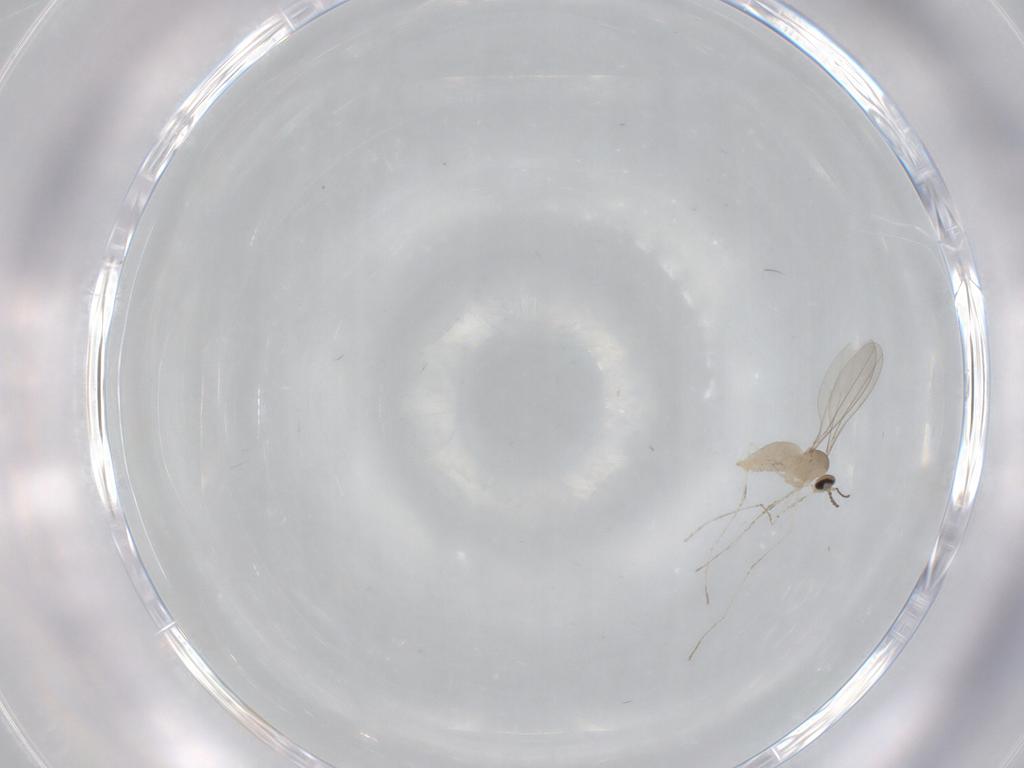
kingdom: Animalia
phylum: Arthropoda
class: Insecta
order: Diptera
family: Cecidomyiidae
